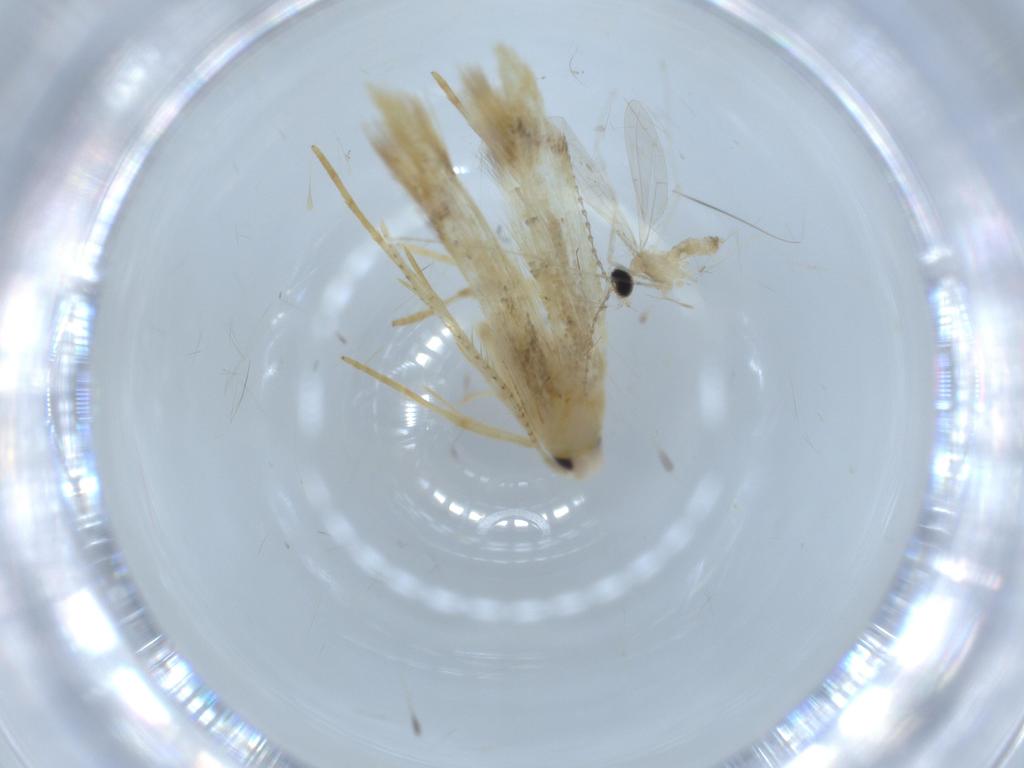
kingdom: Animalia
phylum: Arthropoda
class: Insecta
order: Diptera
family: Cecidomyiidae
